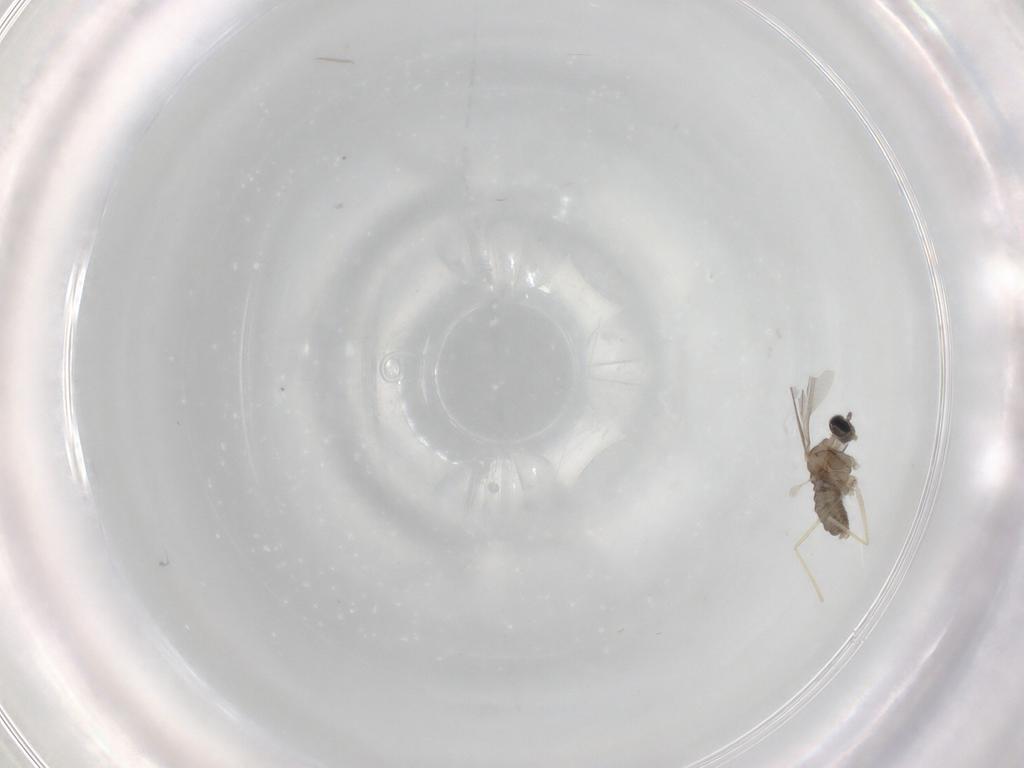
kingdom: Animalia
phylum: Arthropoda
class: Insecta
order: Diptera
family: Cecidomyiidae
